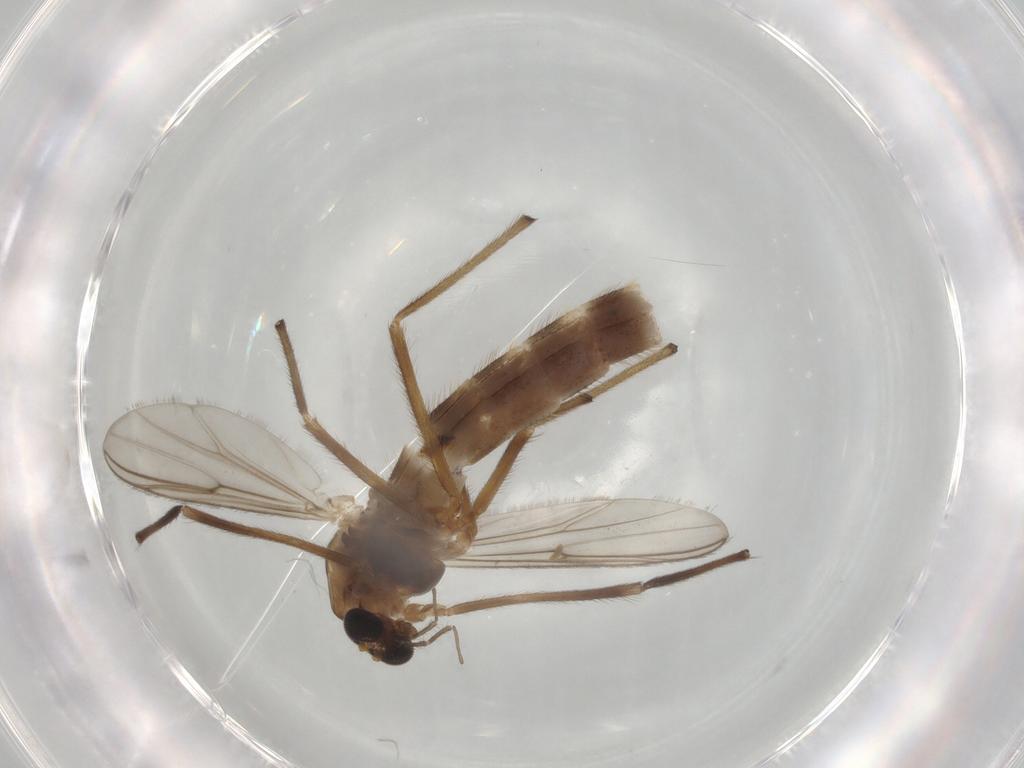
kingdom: Animalia
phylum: Arthropoda
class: Insecta
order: Diptera
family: Chironomidae
